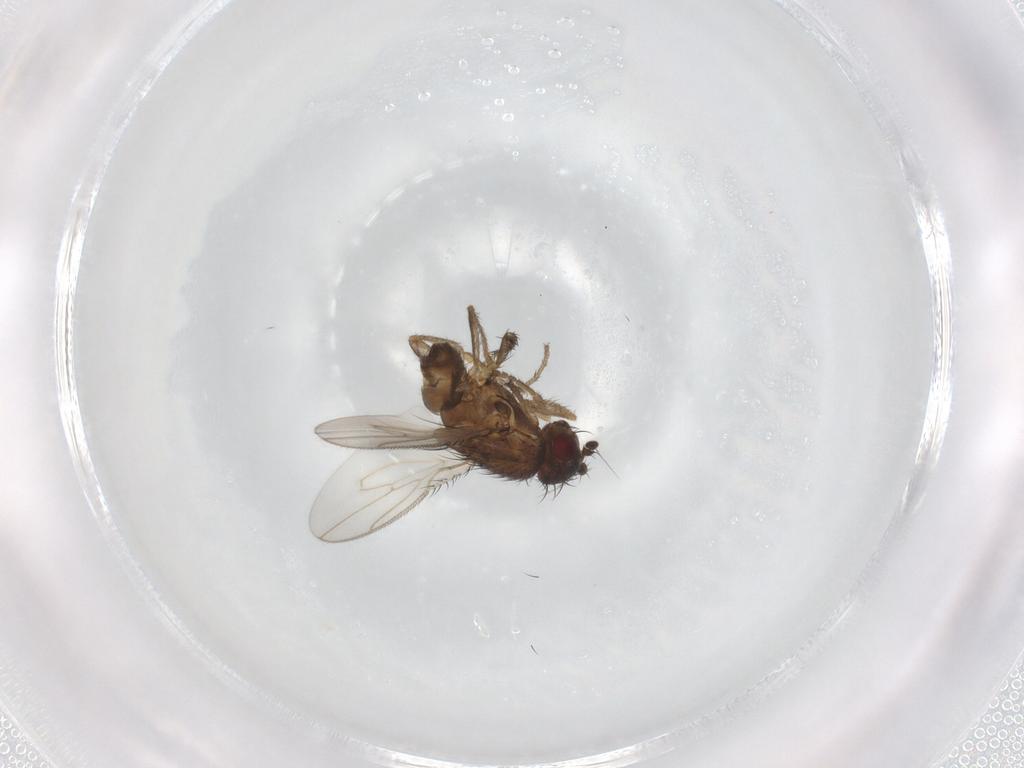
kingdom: Animalia
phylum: Arthropoda
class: Insecta
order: Diptera
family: Sphaeroceridae
